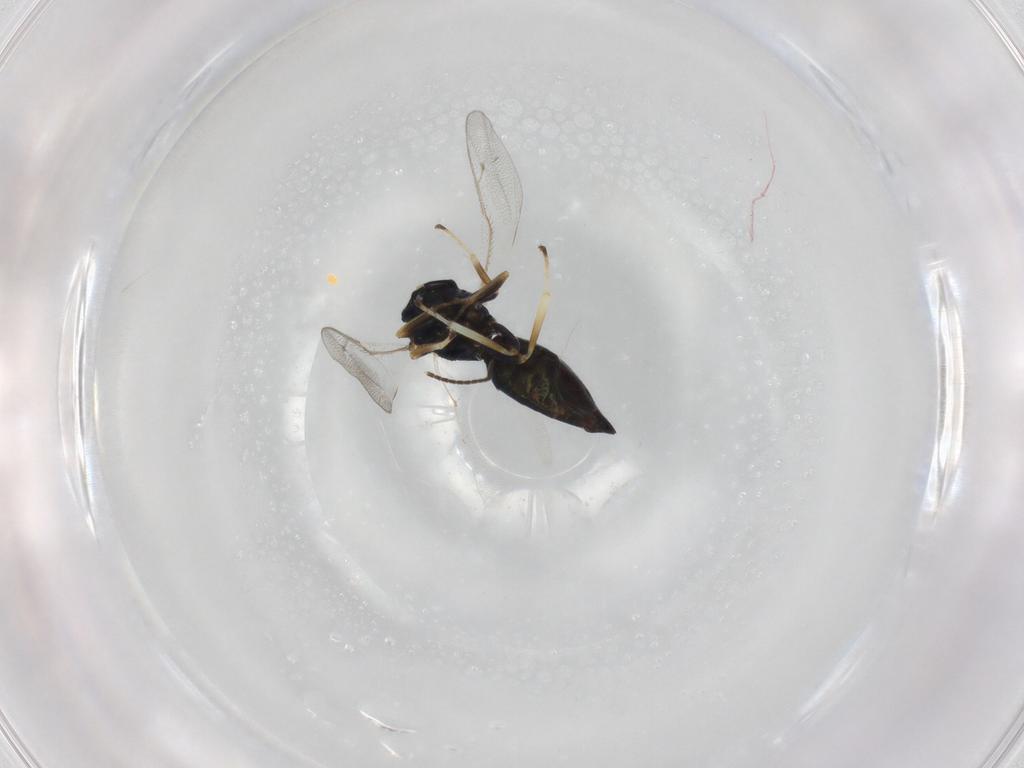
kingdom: Animalia
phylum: Arthropoda
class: Insecta
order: Hymenoptera
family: Pteromalidae
